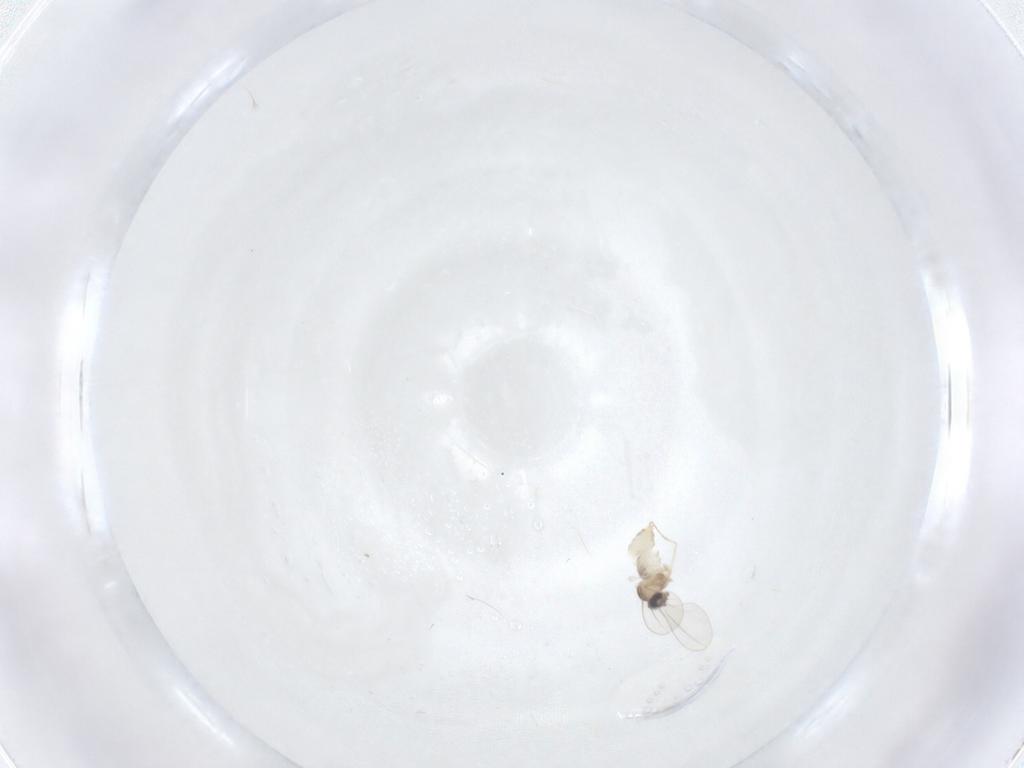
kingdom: Animalia
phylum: Arthropoda
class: Insecta
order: Diptera
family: Cecidomyiidae
